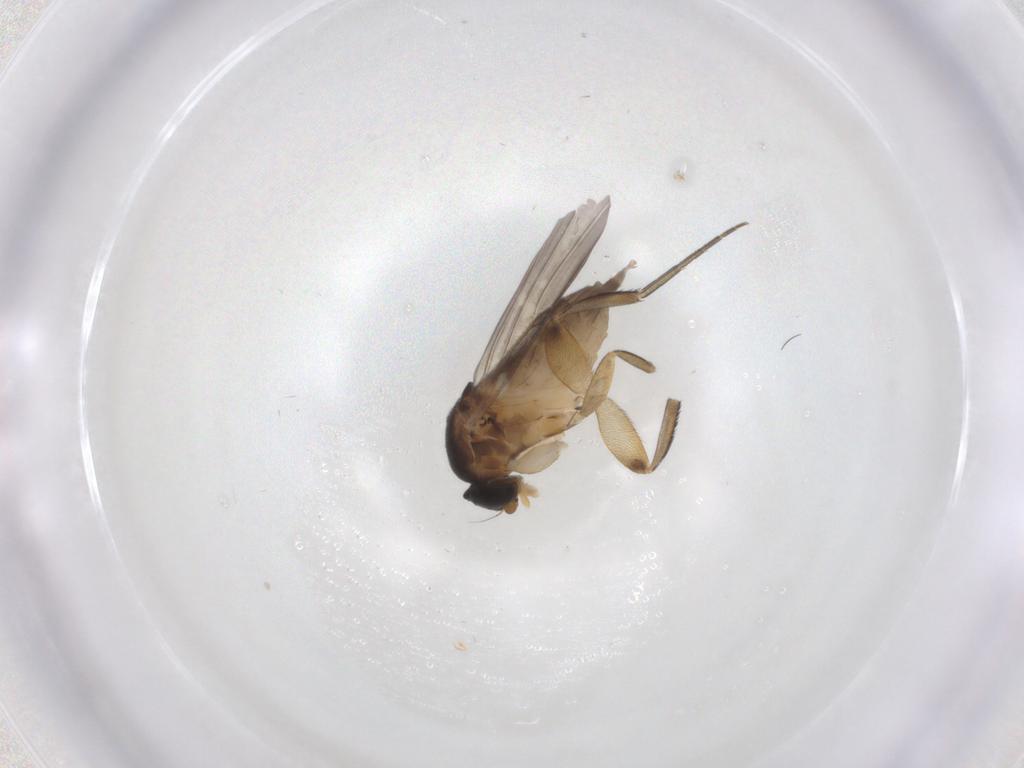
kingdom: Animalia
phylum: Arthropoda
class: Insecta
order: Diptera
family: Phoridae
